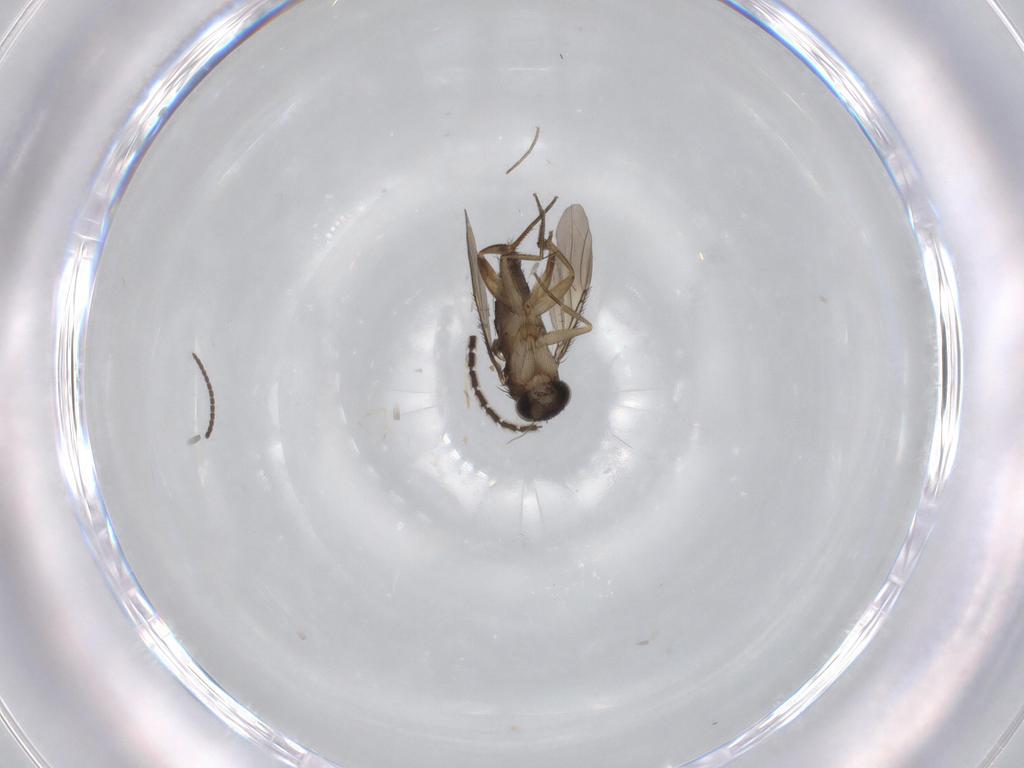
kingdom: Animalia
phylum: Arthropoda
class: Insecta
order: Diptera
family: Phoridae
